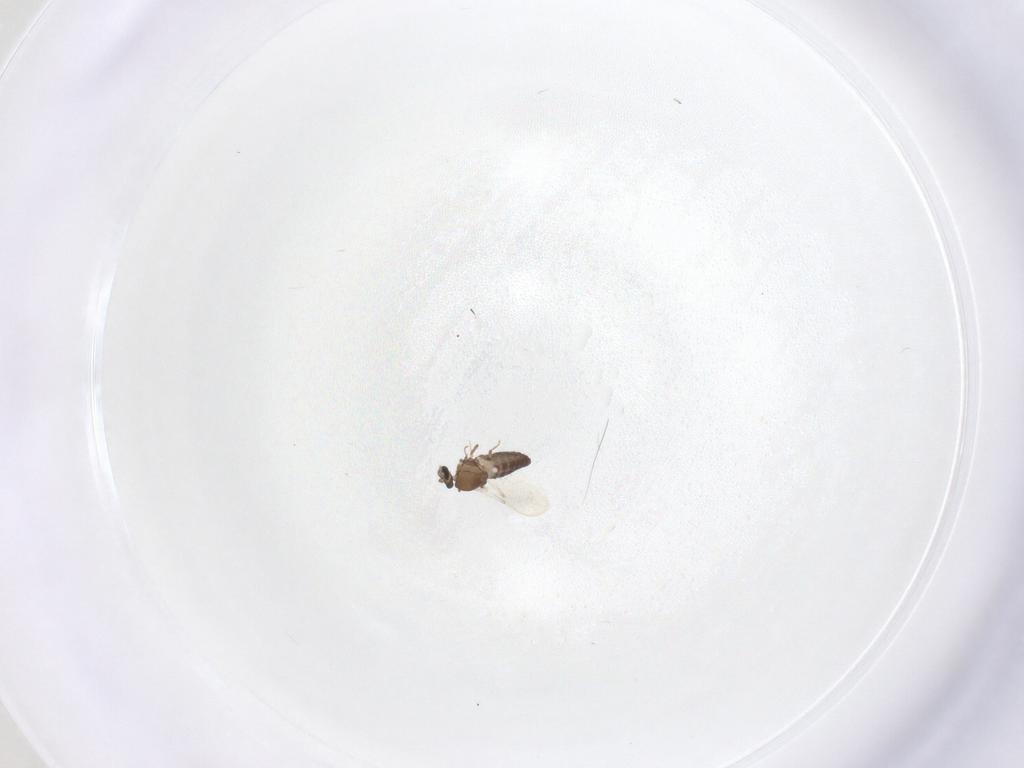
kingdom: Animalia
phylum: Arthropoda
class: Insecta
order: Diptera
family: Ceratopogonidae
